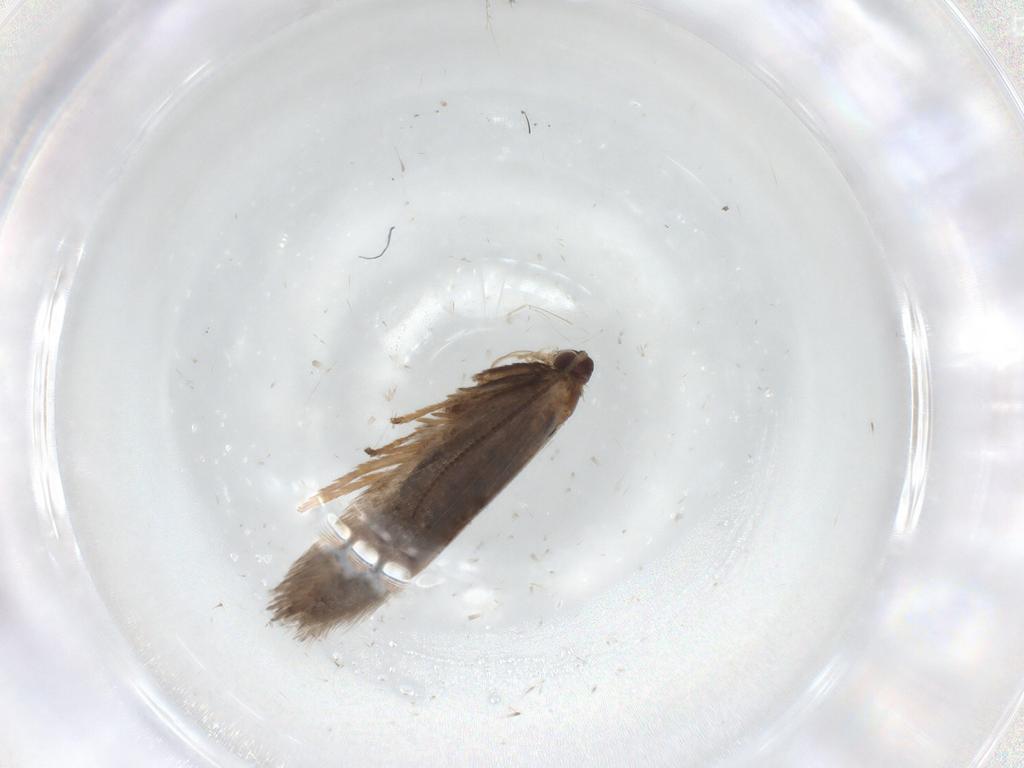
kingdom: Animalia
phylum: Arthropoda
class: Insecta
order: Lepidoptera
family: Nepticulidae
